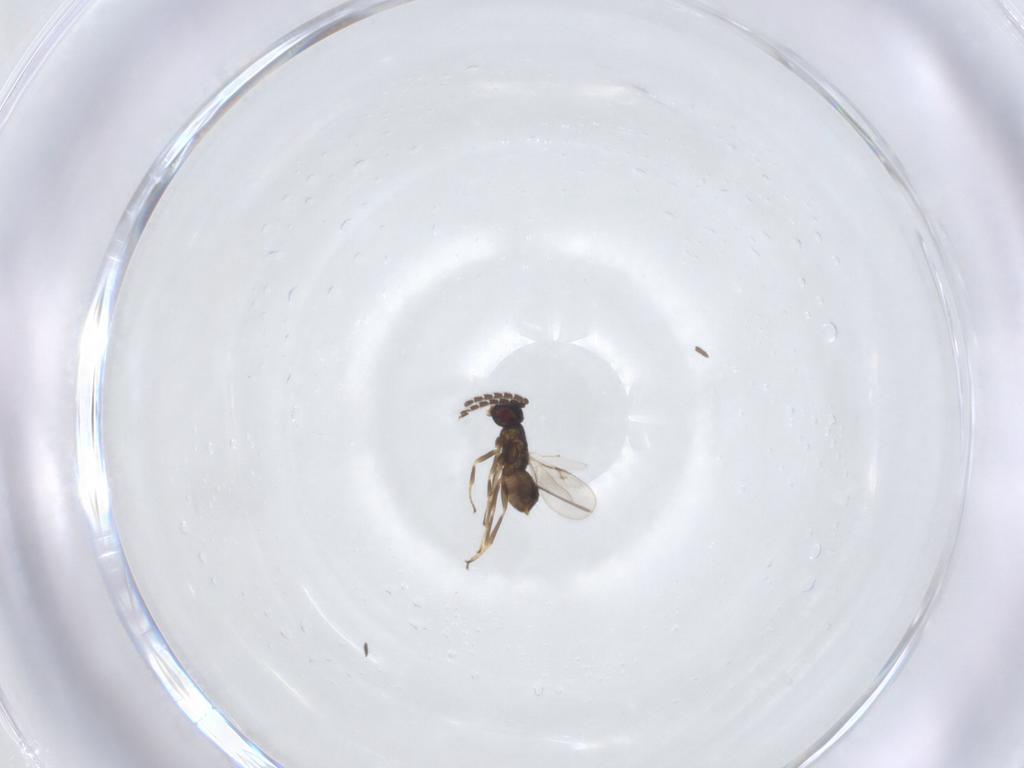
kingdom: Animalia
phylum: Arthropoda
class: Insecta
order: Hymenoptera
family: Encyrtidae
